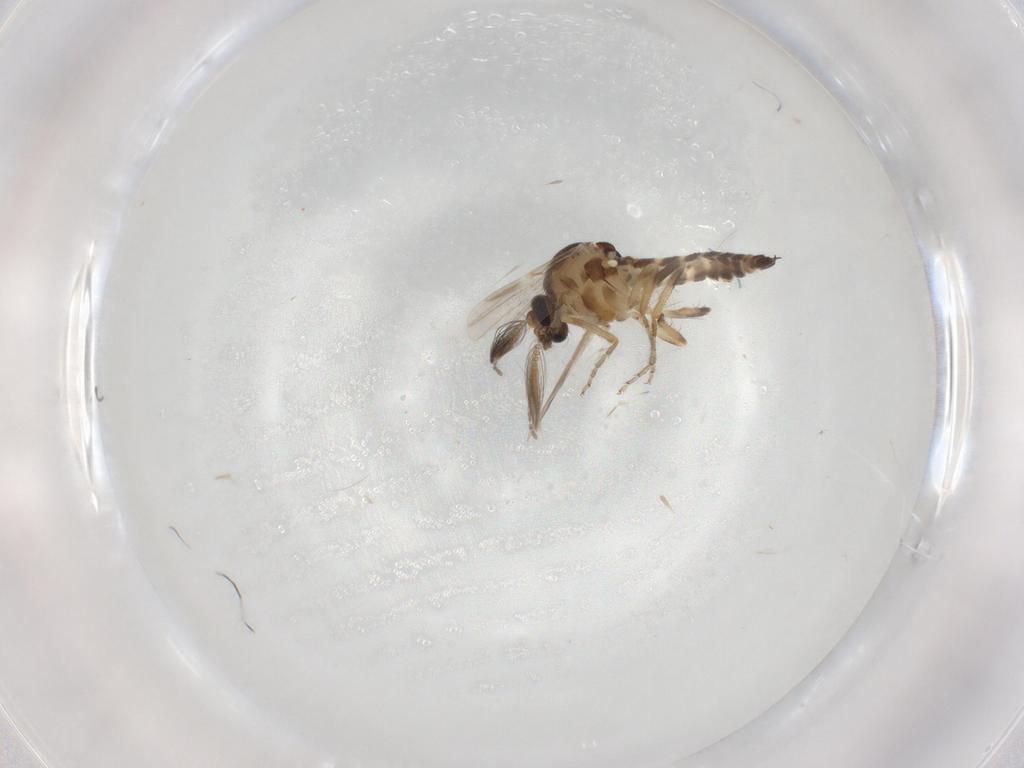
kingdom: Animalia
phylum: Arthropoda
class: Insecta
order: Diptera
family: Ceratopogonidae
